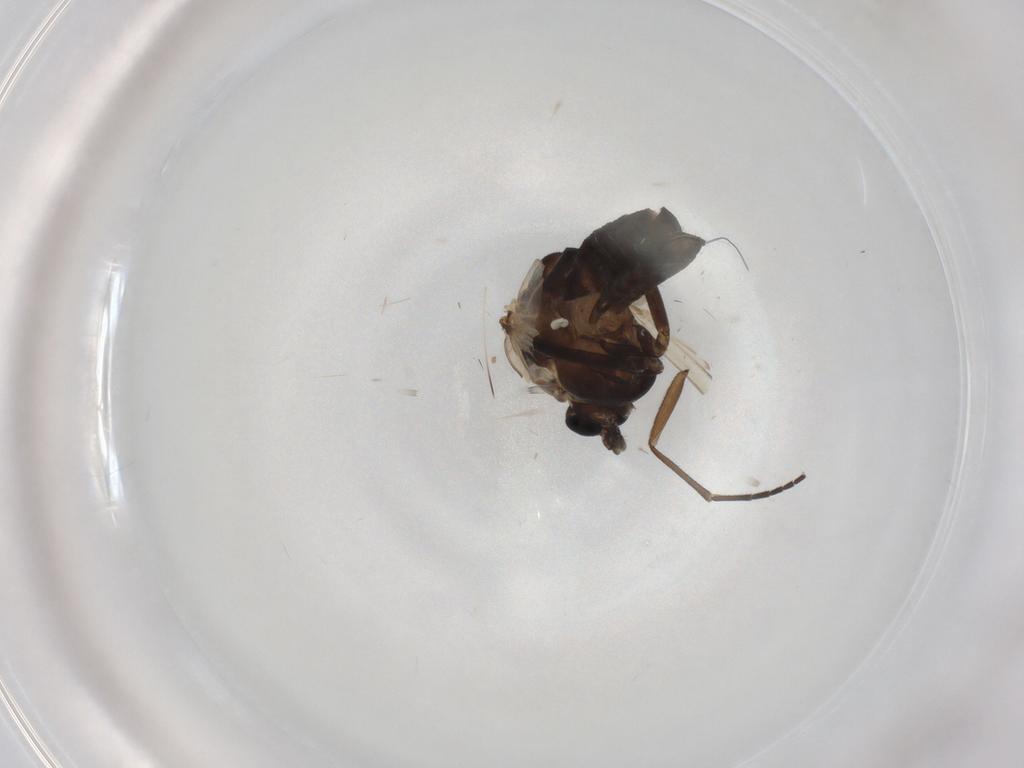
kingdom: Animalia
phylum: Arthropoda
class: Insecta
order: Diptera
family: Chironomidae
